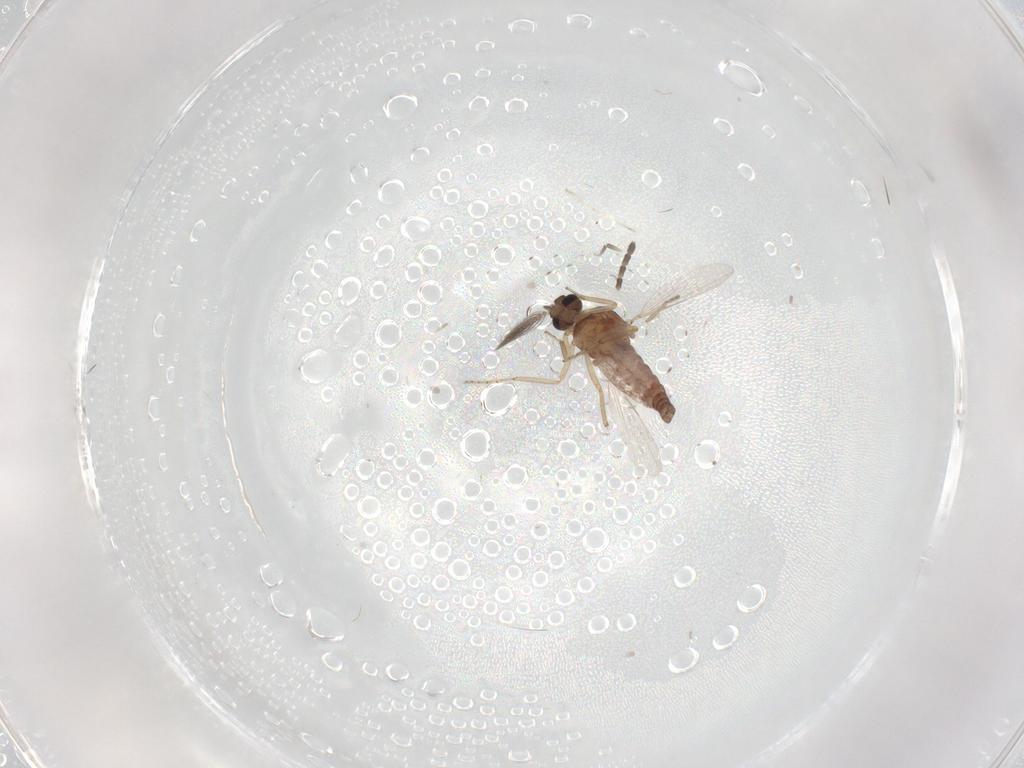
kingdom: Animalia
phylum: Arthropoda
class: Insecta
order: Diptera
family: Ceratopogonidae
